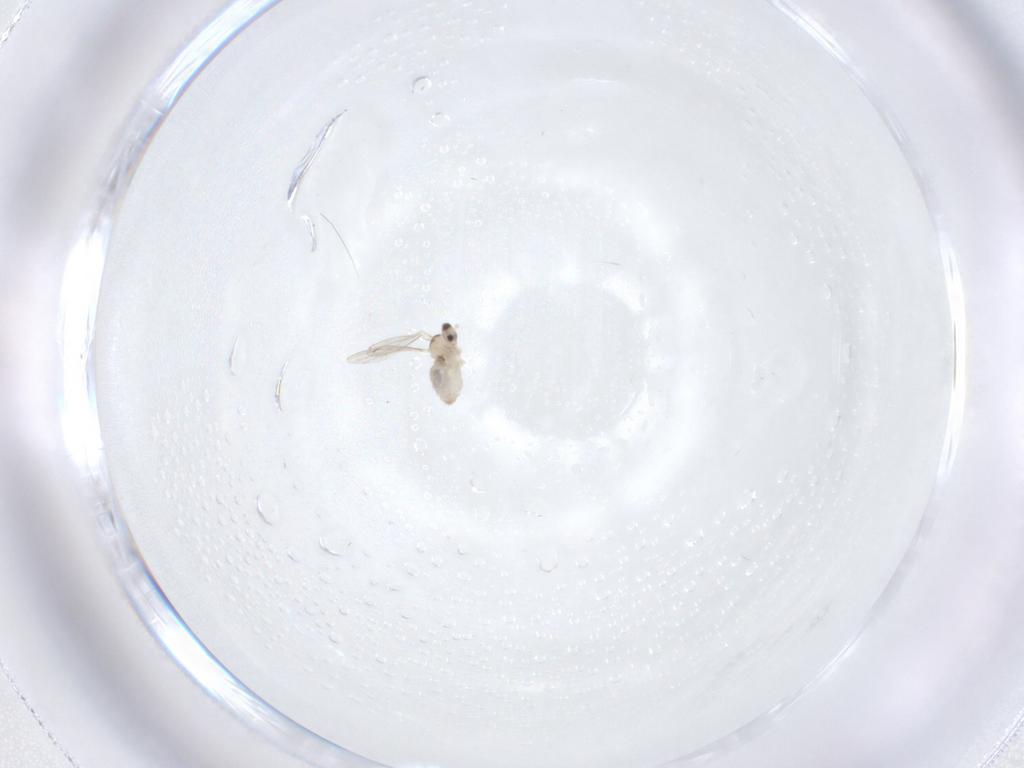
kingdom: Animalia
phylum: Arthropoda
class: Insecta
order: Diptera
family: Cecidomyiidae
